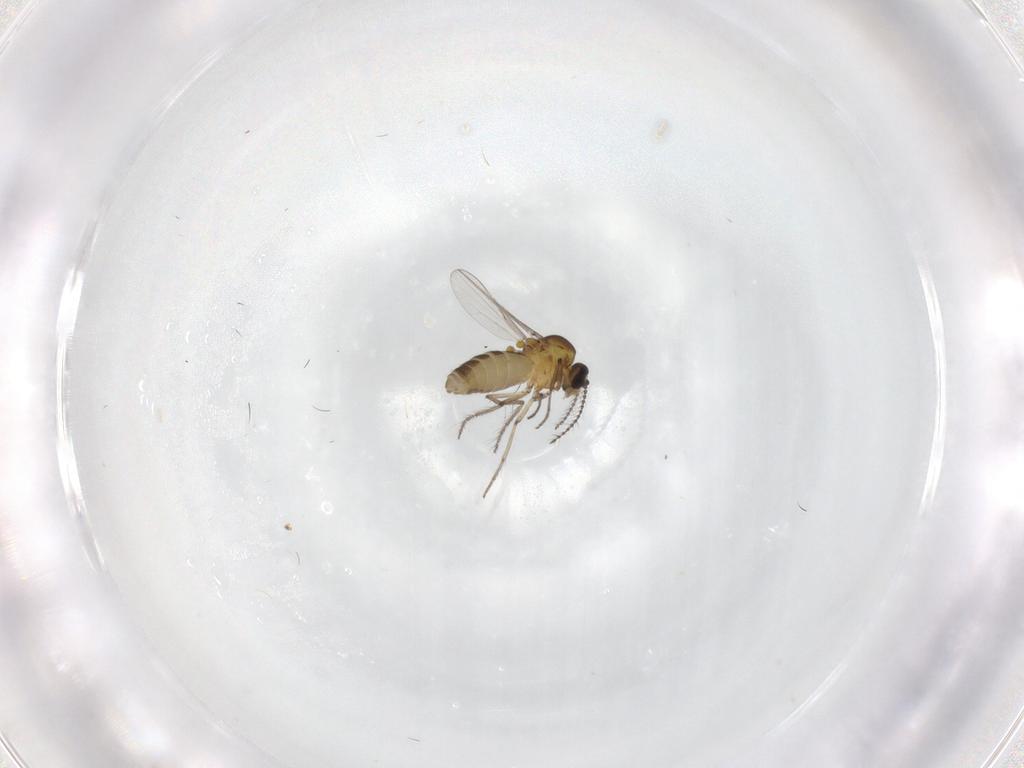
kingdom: Animalia
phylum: Arthropoda
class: Insecta
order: Diptera
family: Ceratopogonidae
